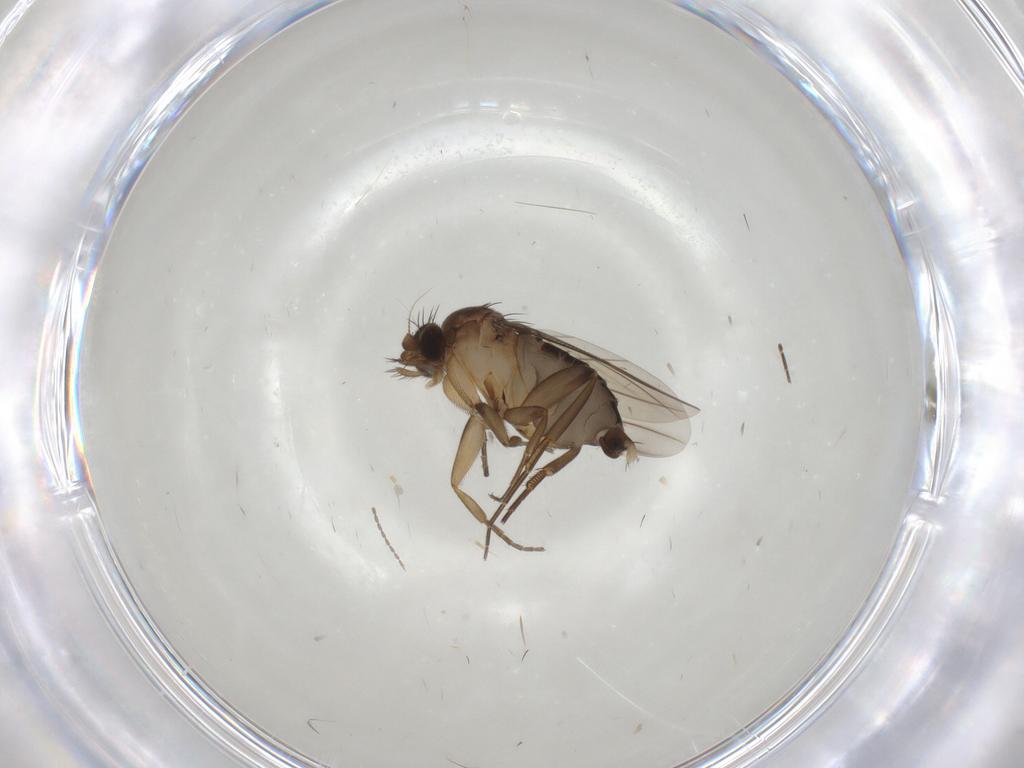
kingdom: Animalia
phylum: Arthropoda
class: Insecta
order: Diptera
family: Phoridae
